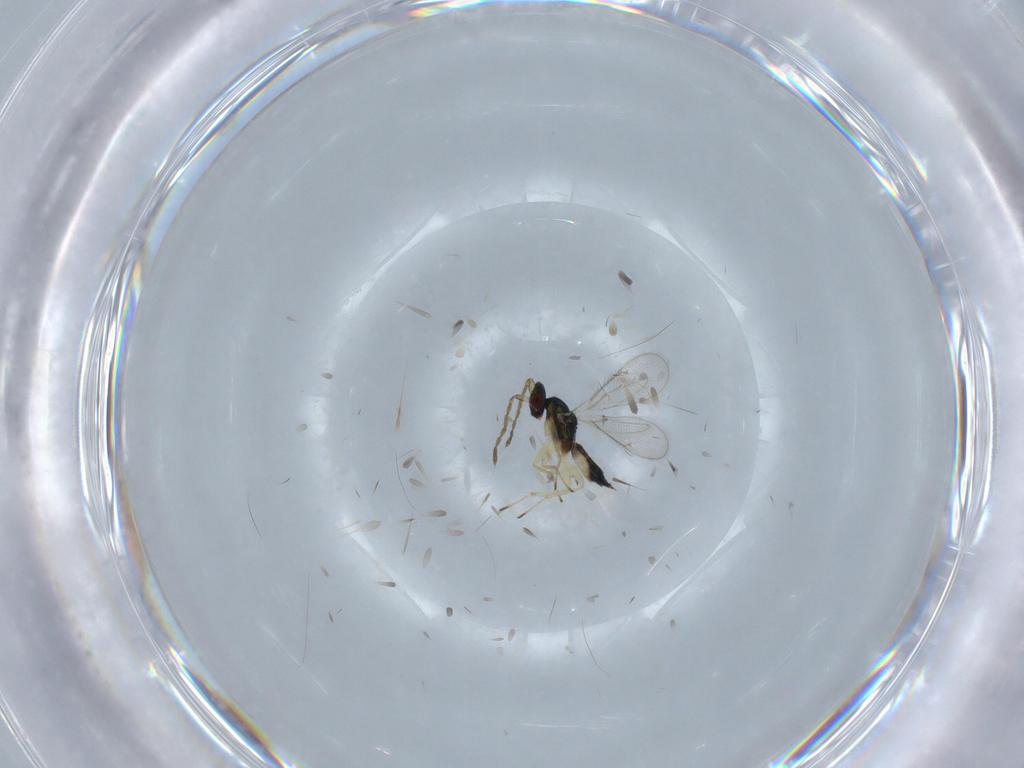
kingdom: Animalia
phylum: Arthropoda
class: Insecta
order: Hymenoptera
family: Eulophidae
